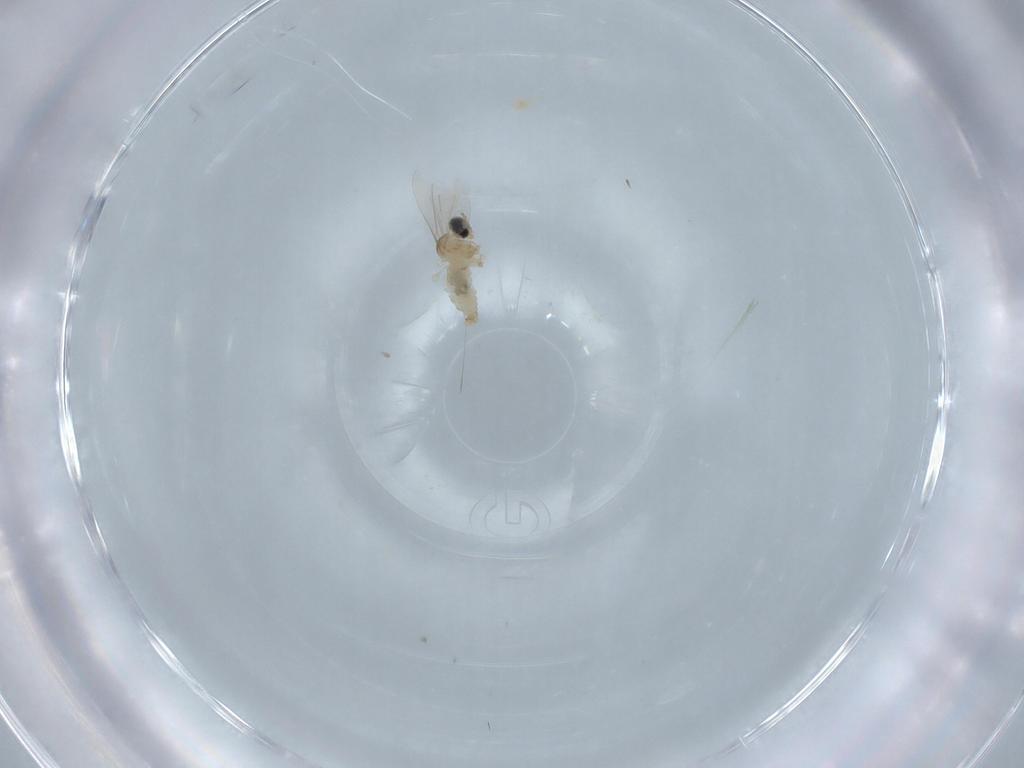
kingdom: Animalia
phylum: Arthropoda
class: Insecta
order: Diptera
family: Cecidomyiidae
